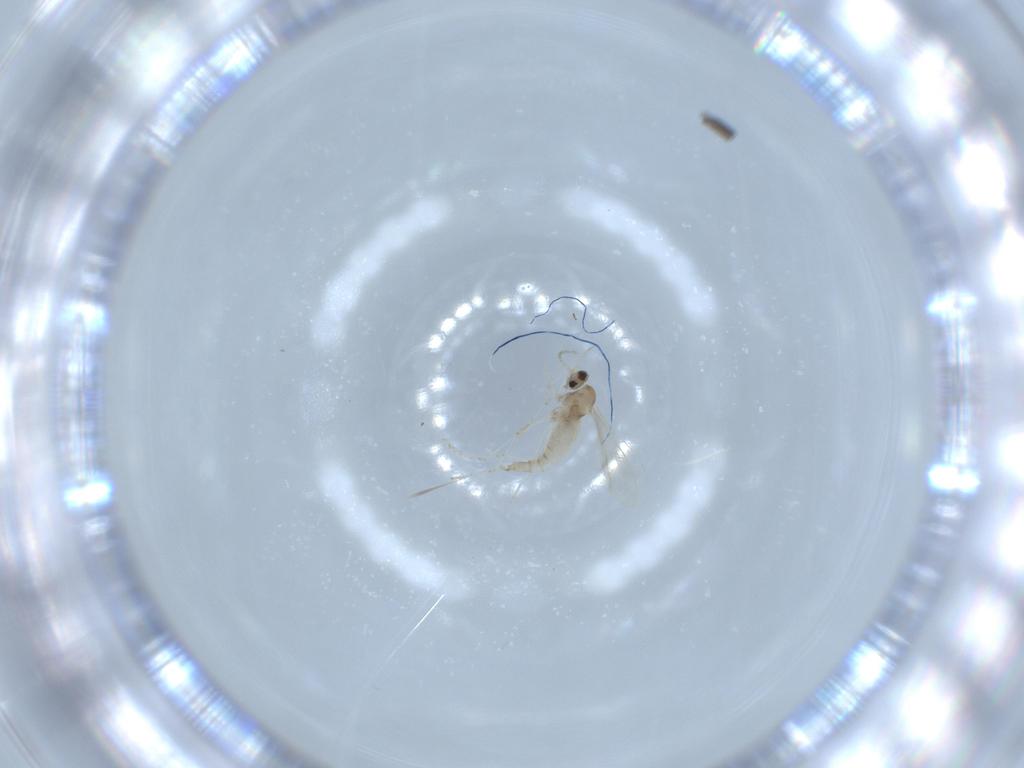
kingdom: Animalia
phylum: Arthropoda
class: Insecta
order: Diptera
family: Cecidomyiidae
